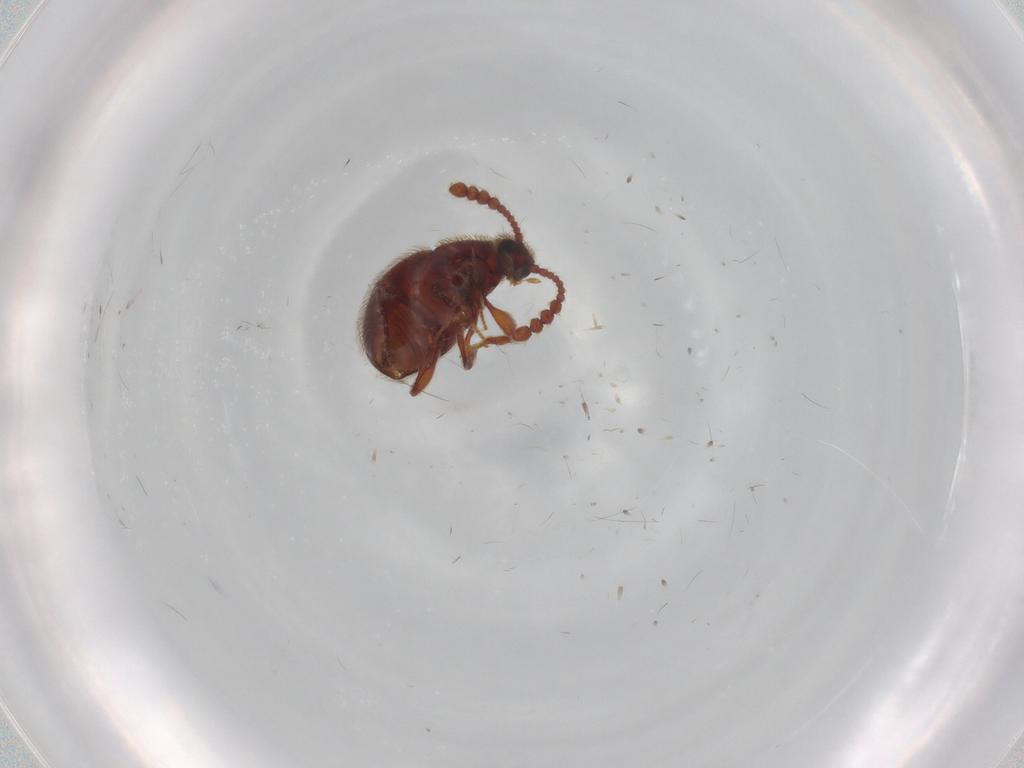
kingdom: Animalia
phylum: Arthropoda
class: Insecta
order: Coleoptera
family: Staphylinidae
